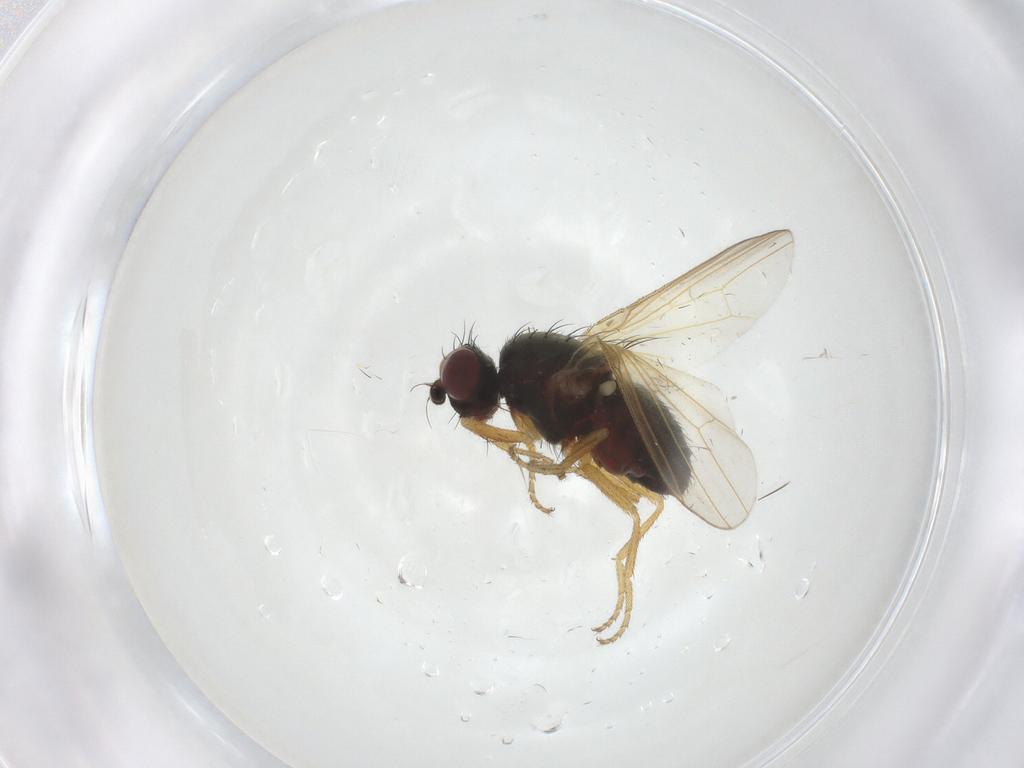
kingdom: Animalia
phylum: Arthropoda
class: Insecta
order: Diptera
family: Heleomyzidae
